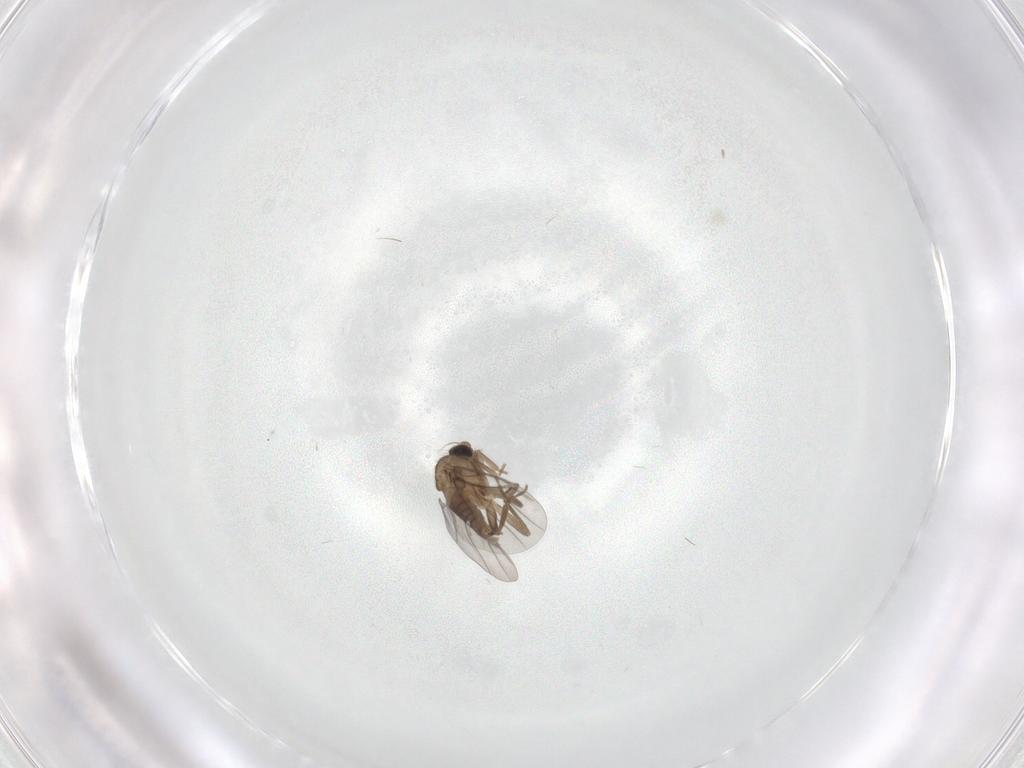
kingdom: Animalia
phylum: Arthropoda
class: Insecta
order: Diptera
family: Ceratopogonidae
